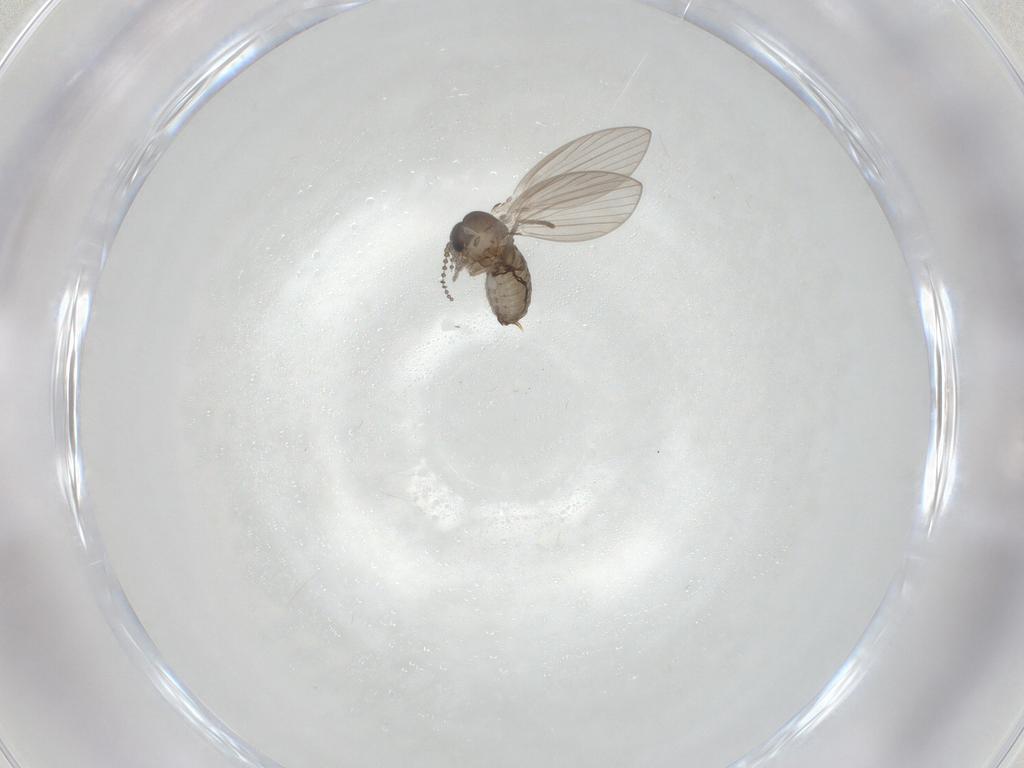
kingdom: Animalia
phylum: Arthropoda
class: Insecta
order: Diptera
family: Psychodidae
